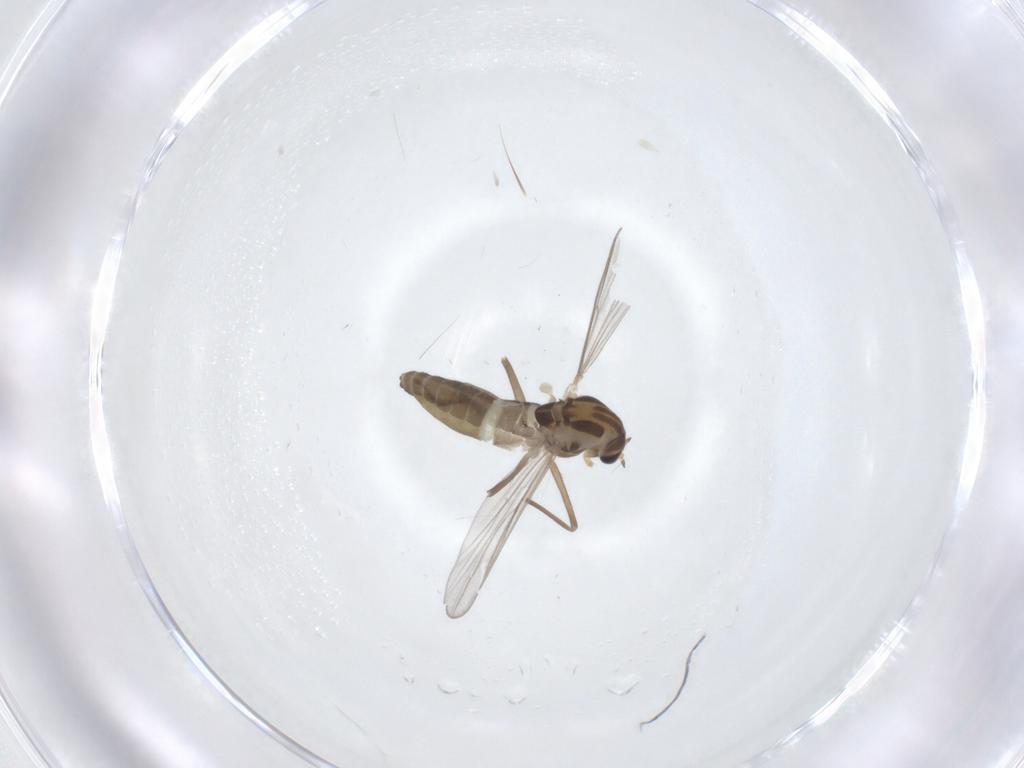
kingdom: Animalia
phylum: Arthropoda
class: Insecta
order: Diptera
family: Chironomidae
